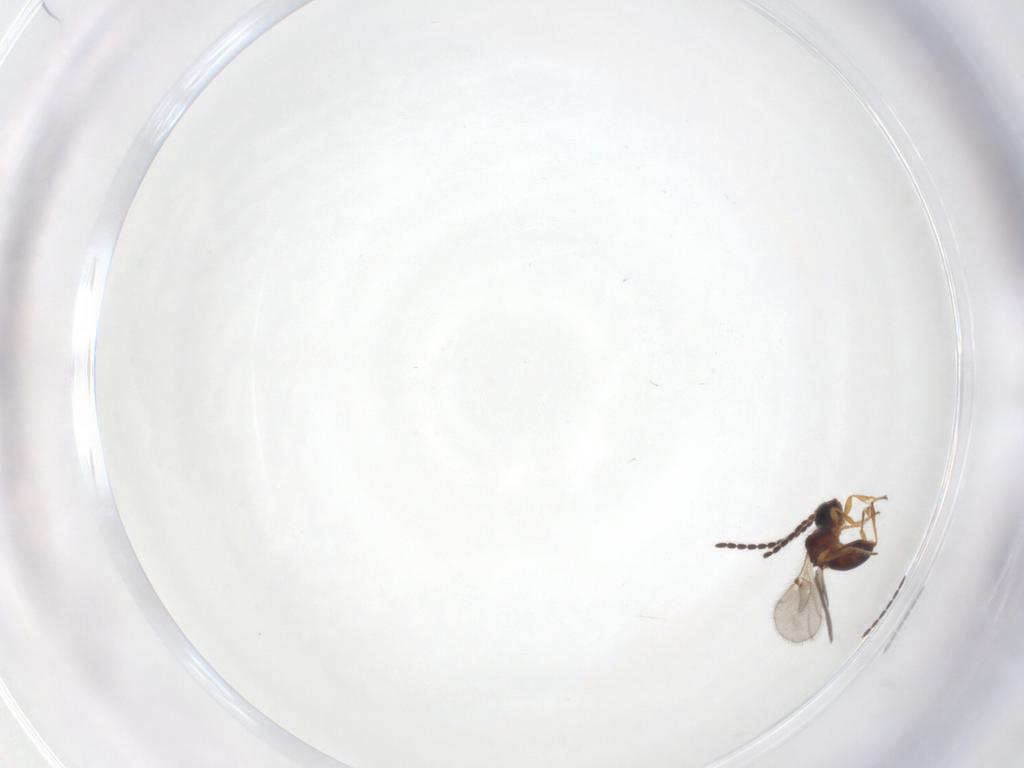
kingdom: Animalia
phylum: Arthropoda
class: Insecta
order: Hymenoptera
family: Diapriidae
